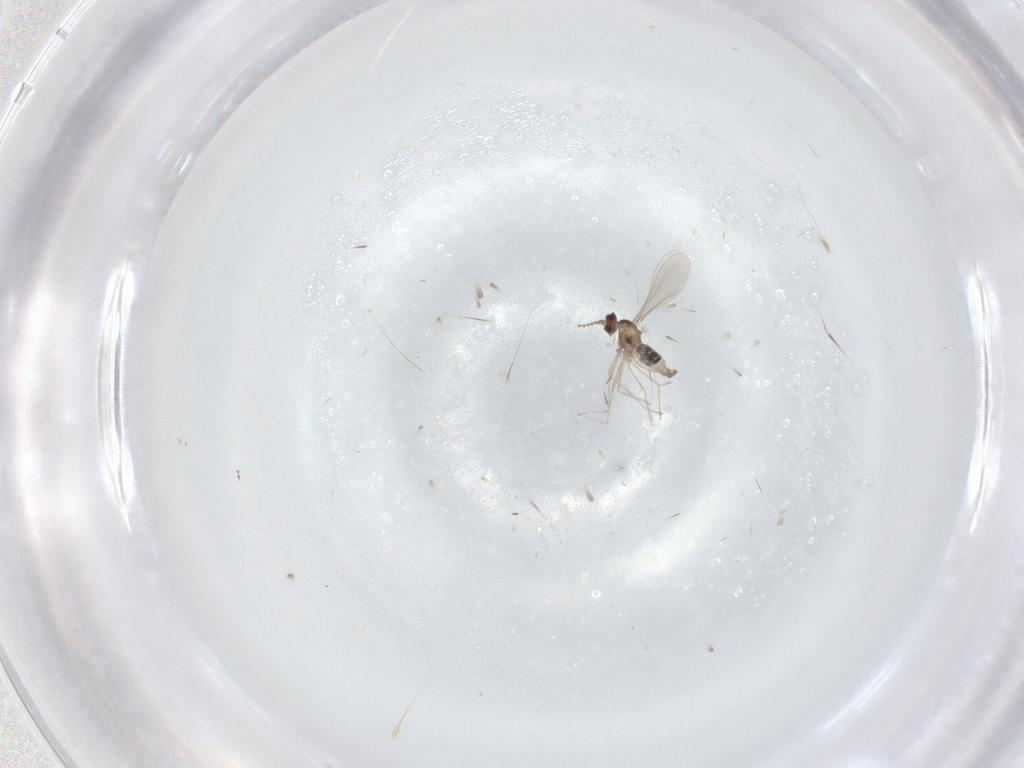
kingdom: Animalia
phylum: Arthropoda
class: Insecta
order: Diptera
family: Cecidomyiidae
